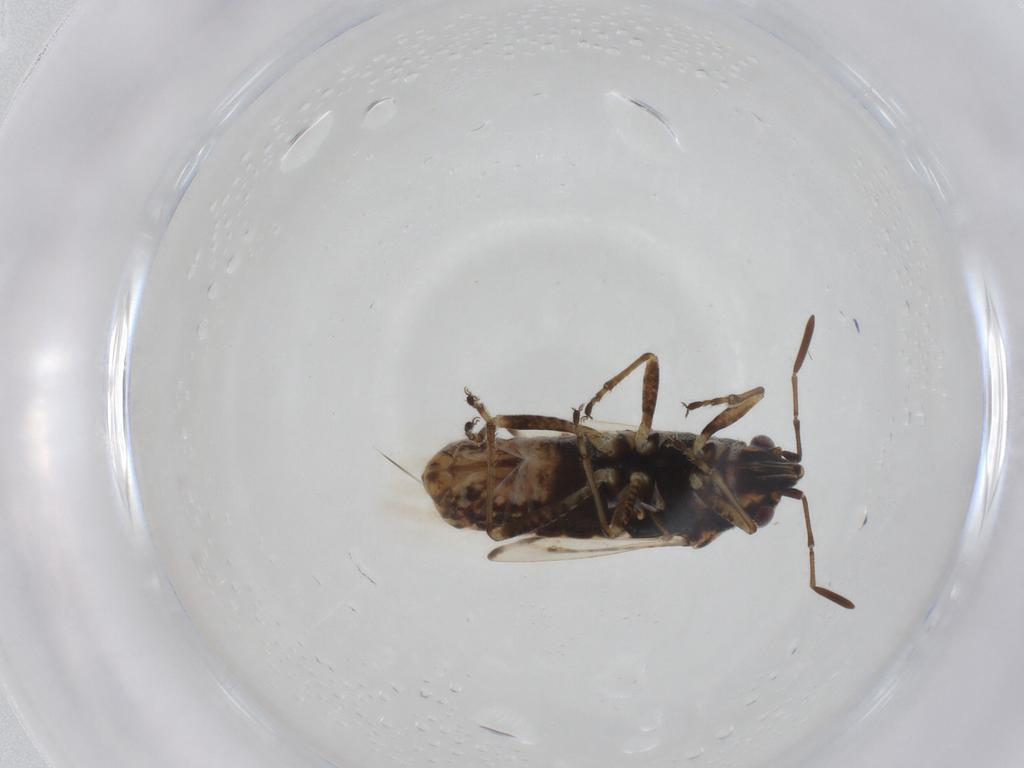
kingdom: Animalia
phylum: Arthropoda
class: Insecta
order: Hemiptera
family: Lygaeidae
